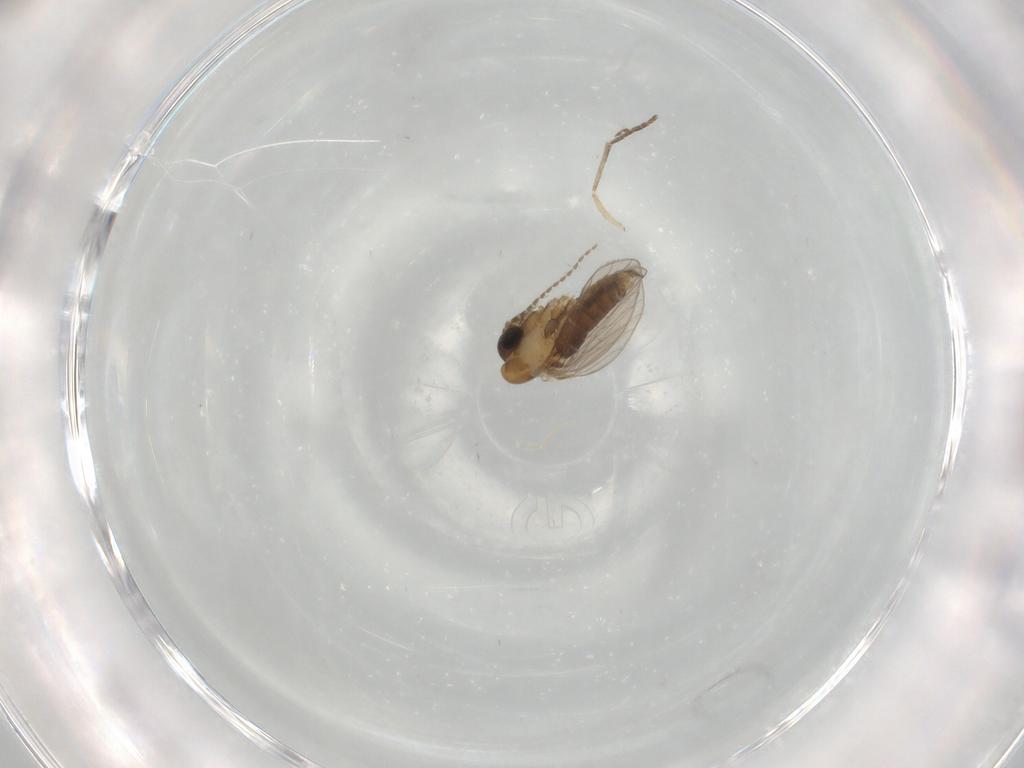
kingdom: Animalia
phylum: Arthropoda
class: Insecta
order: Diptera
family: Psychodidae
